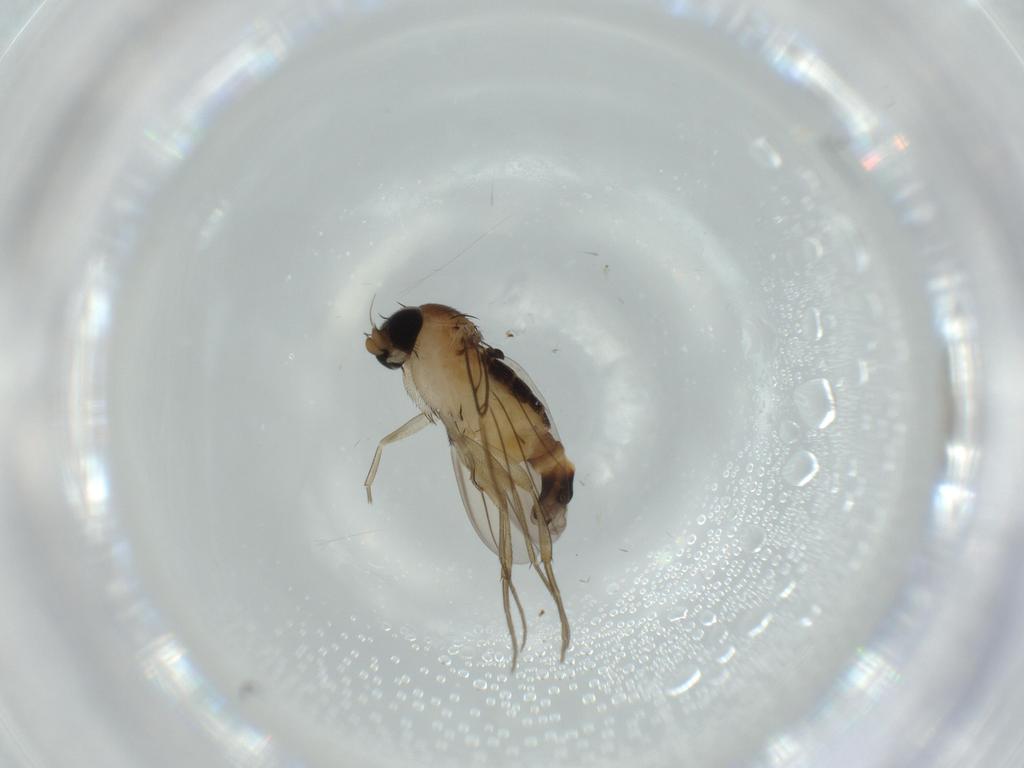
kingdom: Animalia
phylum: Arthropoda
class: Insecta
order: Diptera
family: Phoridae
